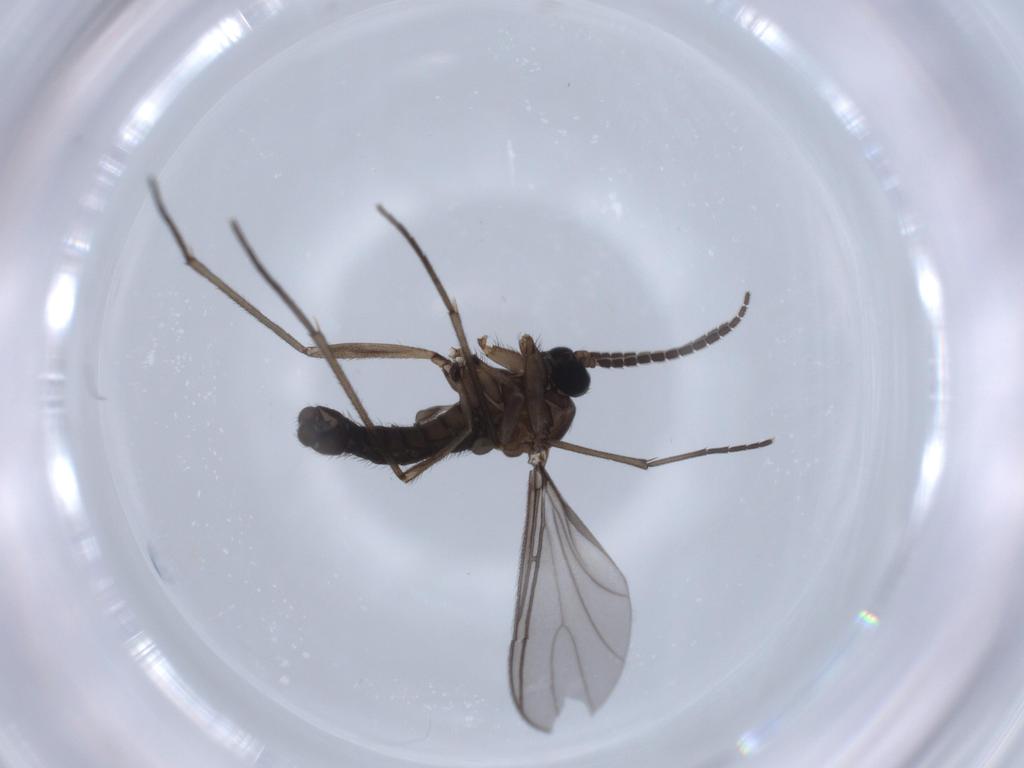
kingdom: Animalia
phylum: Arthropoda
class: Insecta
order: Diptera
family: Sciaridae
